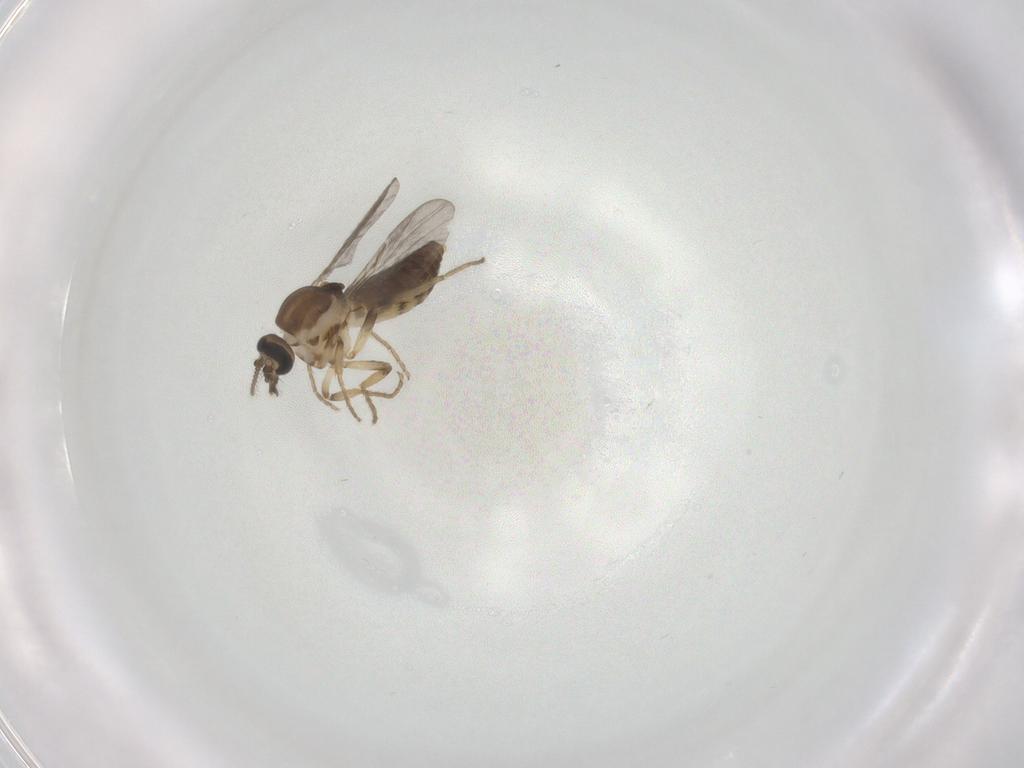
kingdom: Animalia
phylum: Arthropoda
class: Insecta
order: Diptera
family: Ceratopogonidae
